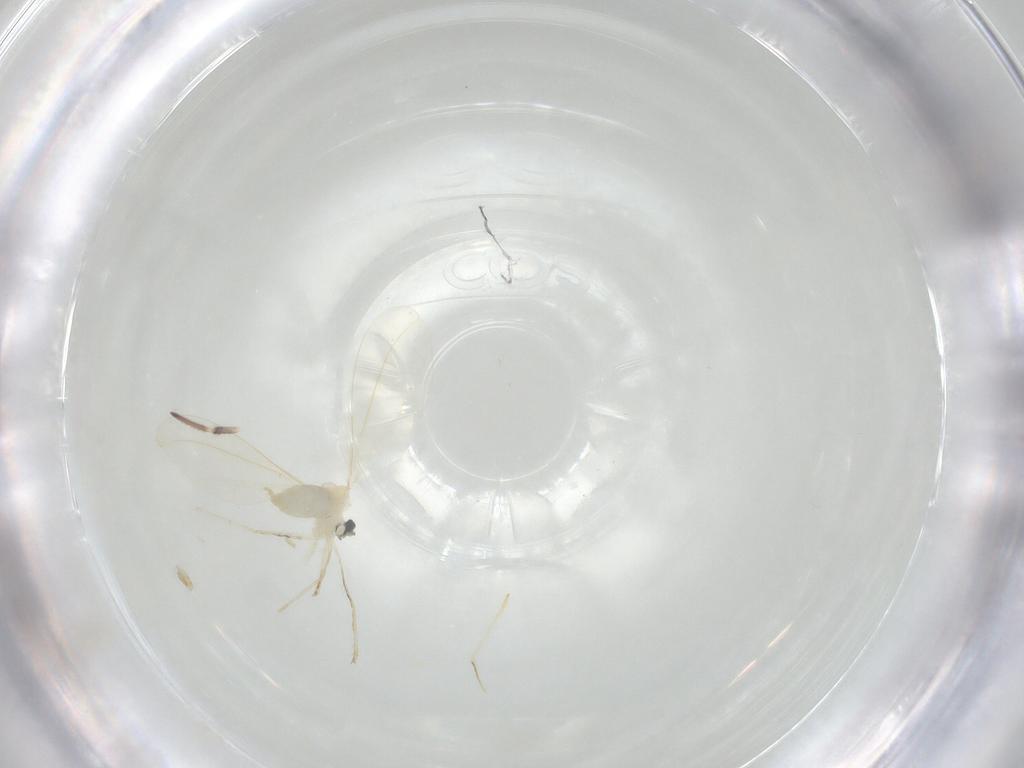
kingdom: Animalia
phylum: Arthropoda
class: Insecta
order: Diptera
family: Cecidomyiidae
